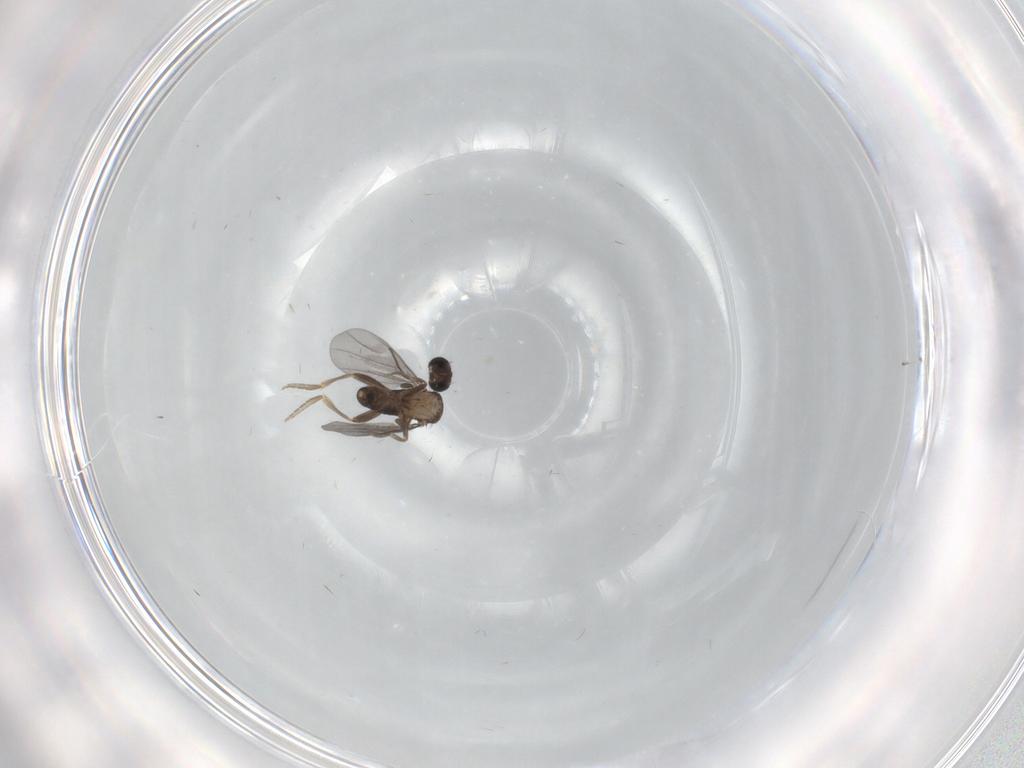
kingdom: Animalia
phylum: Arthropoda
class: Insecta
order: Diptera
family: Phoridae
